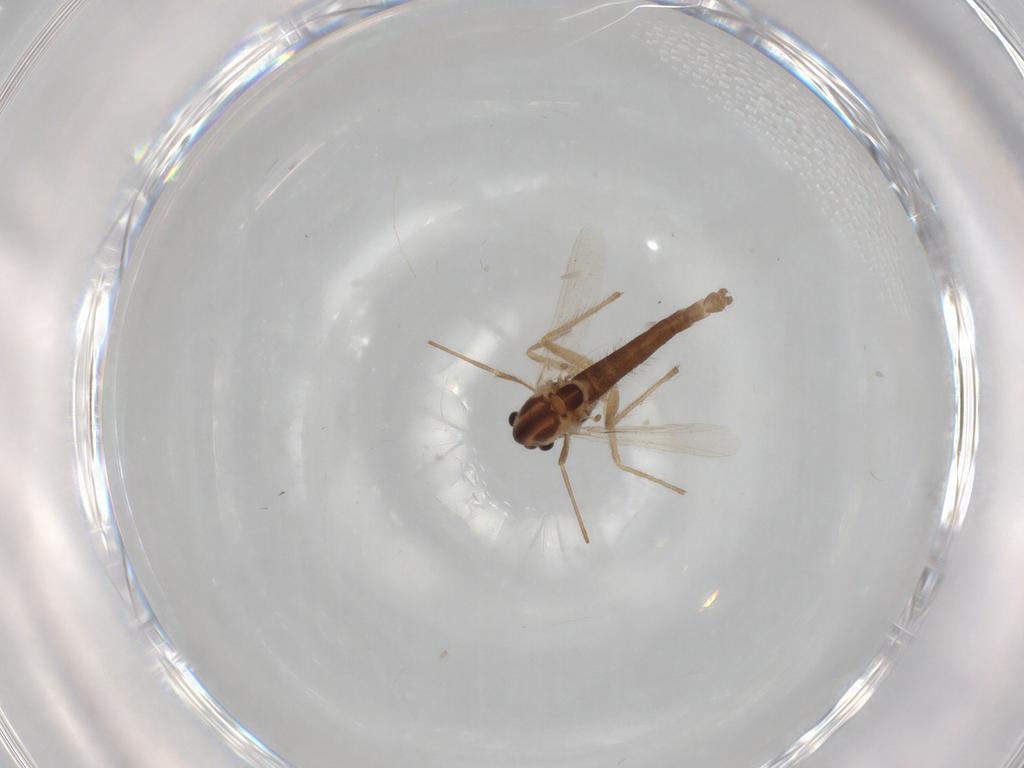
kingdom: Animalia
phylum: Arthropoda
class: Insecta
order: Diptera
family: Chironomidae
